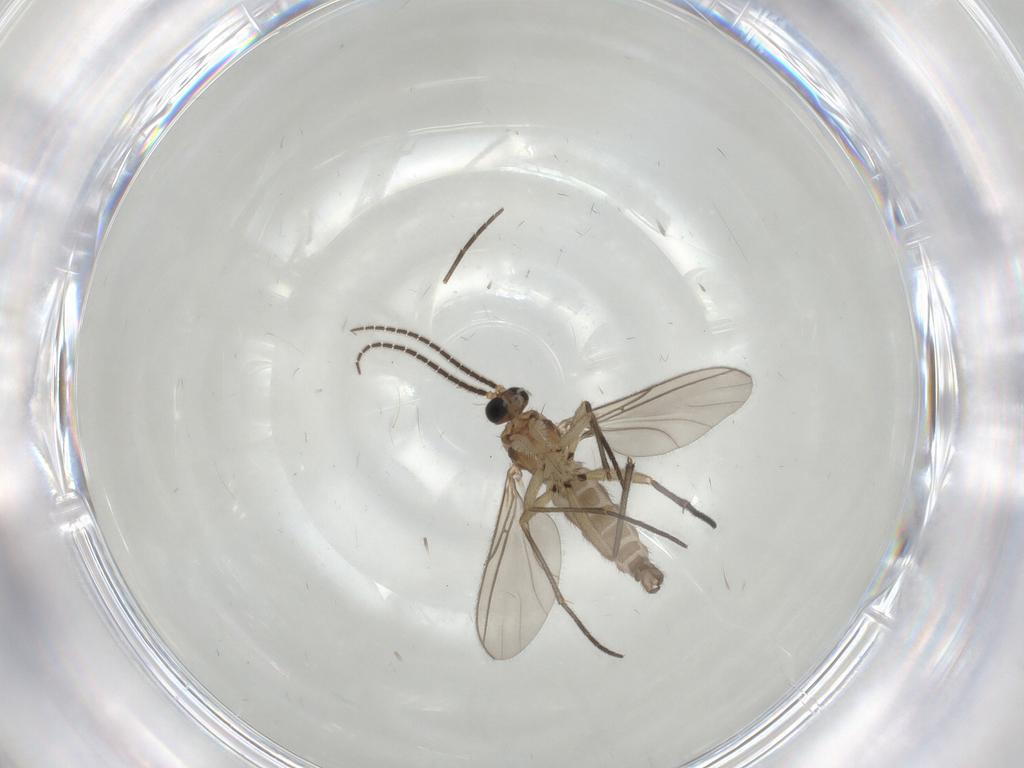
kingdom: Animalia
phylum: Arthropoda
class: Insecta
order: Diptera
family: Sciaridae
